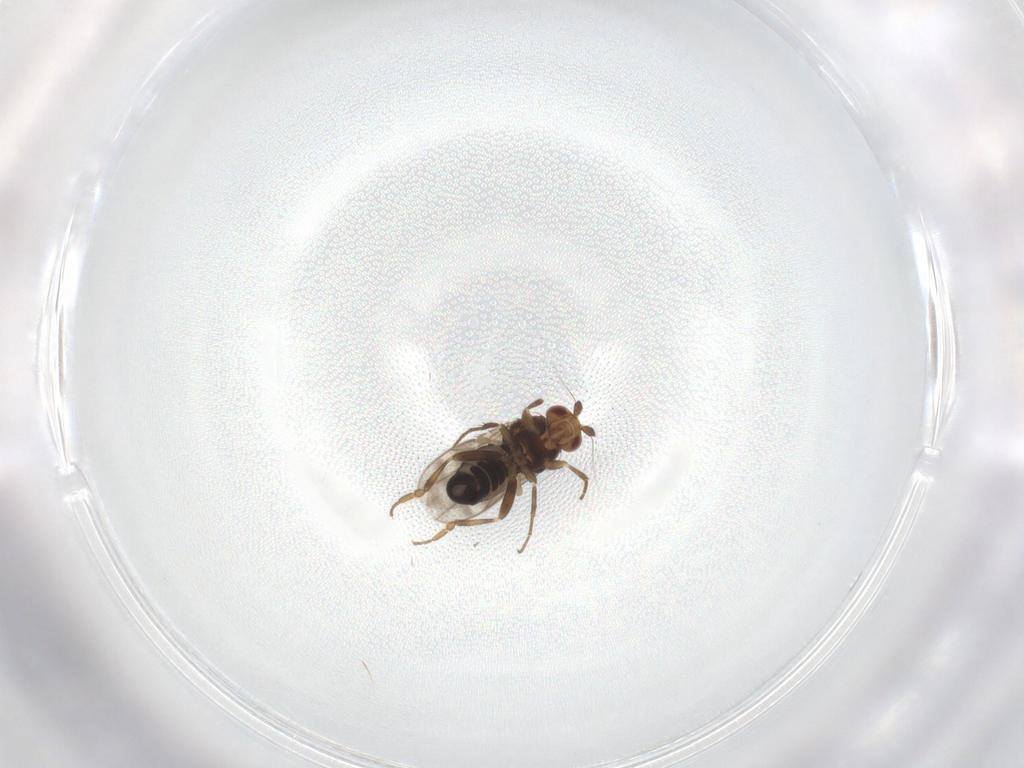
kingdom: Animalia
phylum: Arthropoda
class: Insecta
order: Diptera
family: Sphaeroceridae
